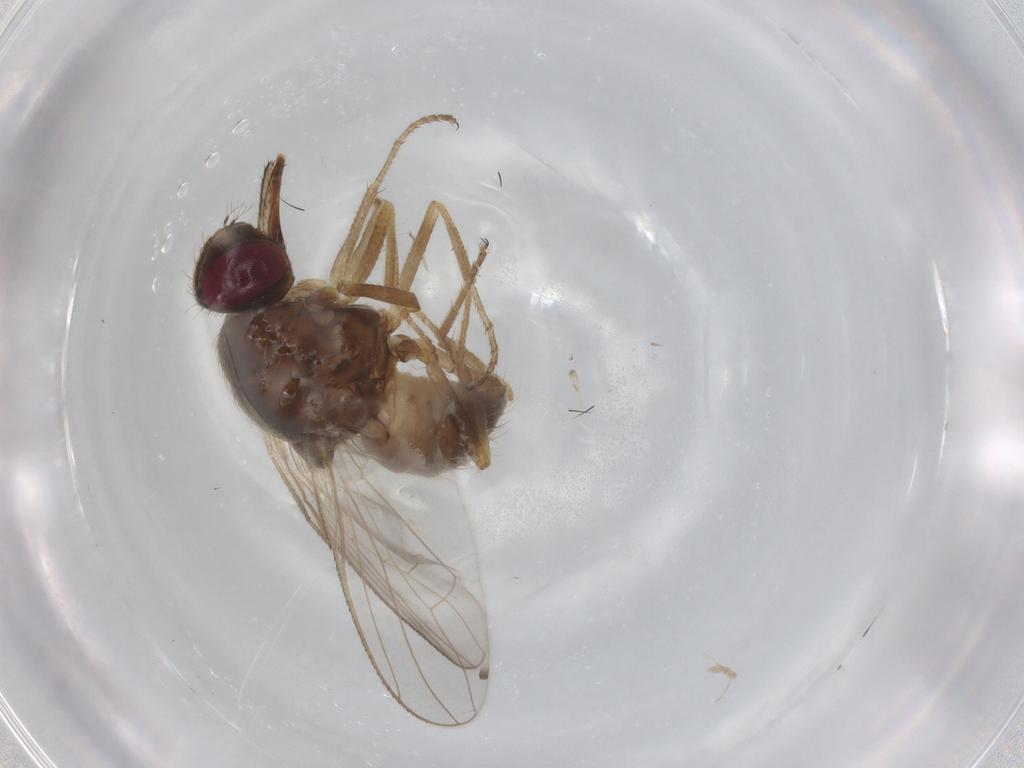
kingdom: Animalia
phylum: Arthropoda
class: Insecta
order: Diptera
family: Ceratopogonidae
